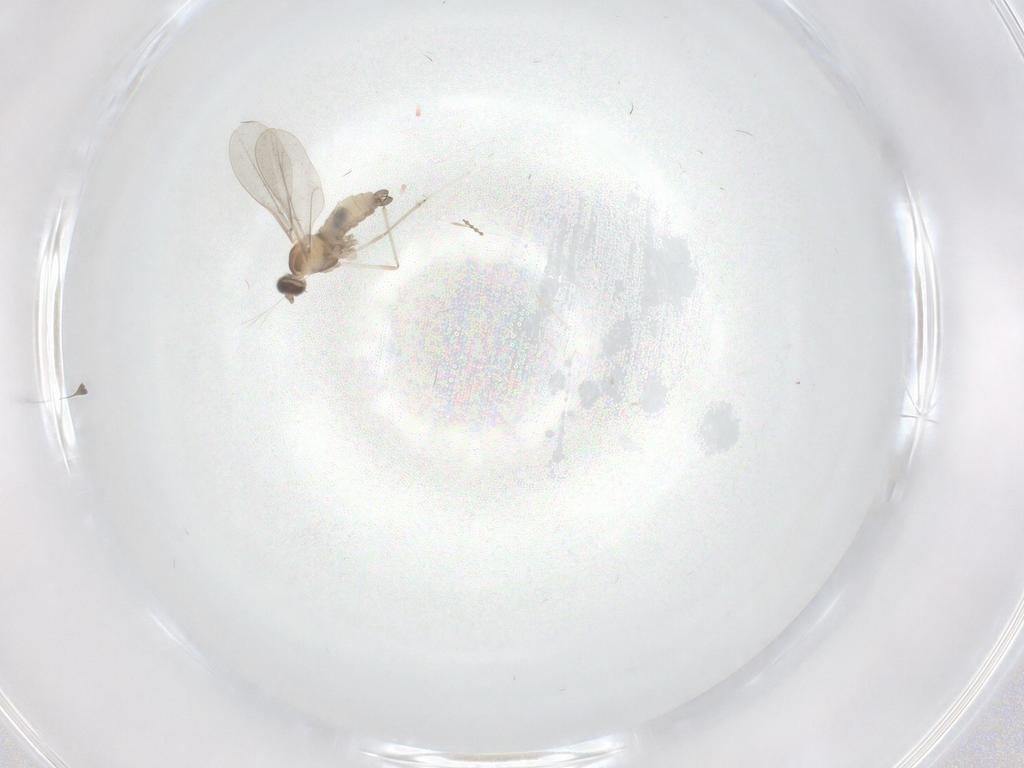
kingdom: Animalia
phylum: Arthropoda
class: Insecta
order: Diptera
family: Cecidomyiidae
